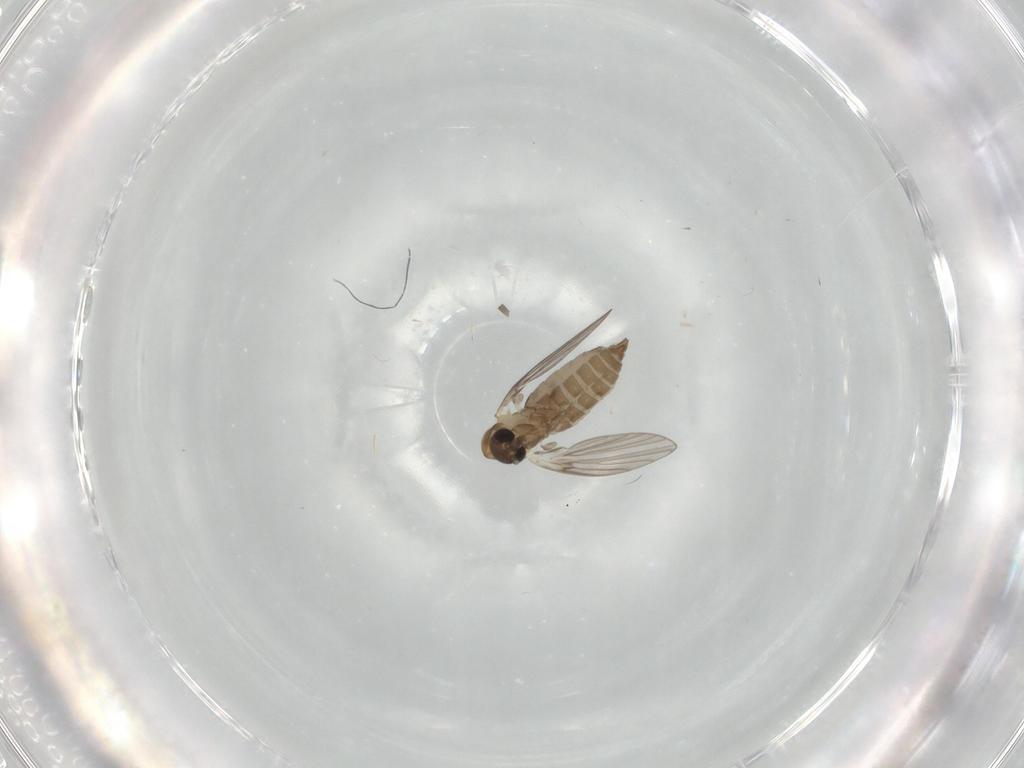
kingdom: Animalia
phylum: Arthropoda
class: Insecta
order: Diptera
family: Psychodidae
